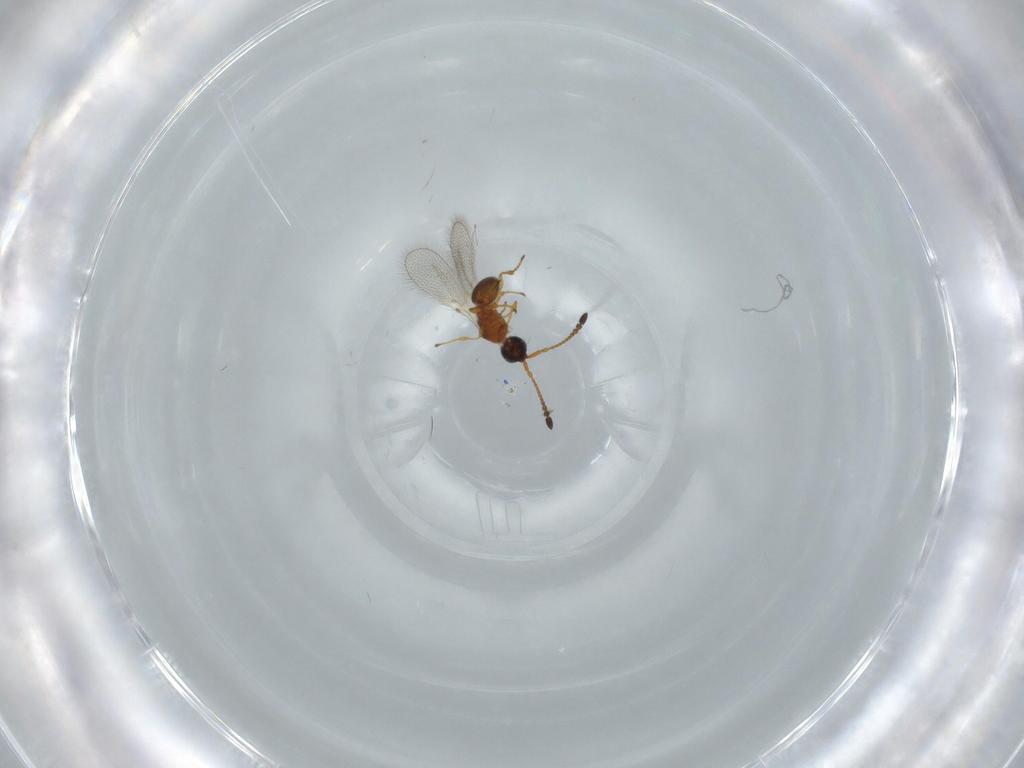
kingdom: Animalia
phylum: Arthropoda
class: Insecta
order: Hymenoptera
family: Diapriidae
